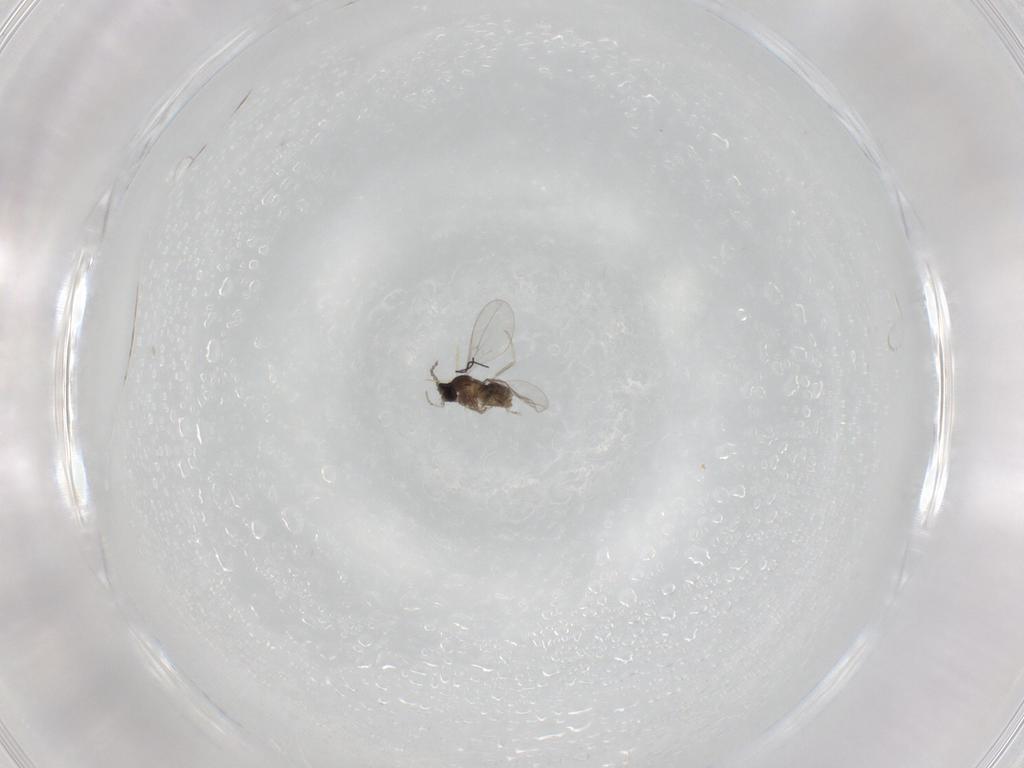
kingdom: Animalia
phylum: Arthropoda
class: Insecta
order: Diptera
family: Cecidomyiidae
